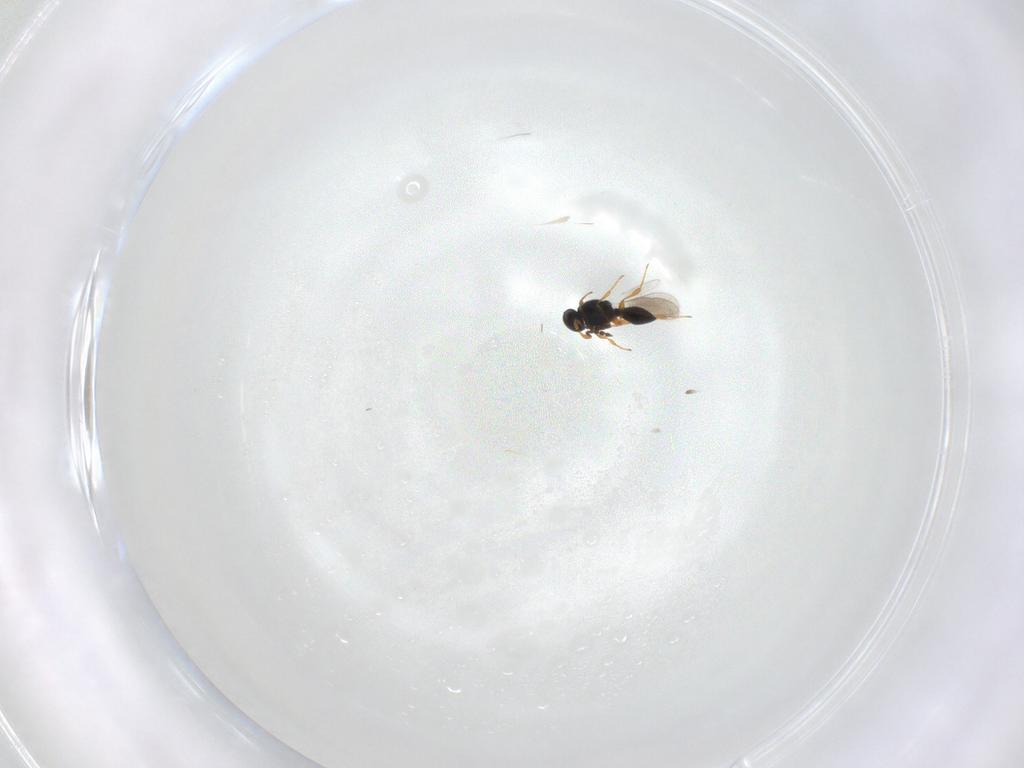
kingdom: Animalia
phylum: Arthropoda
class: Insecta
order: Hymenoptera
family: Platygastridae
